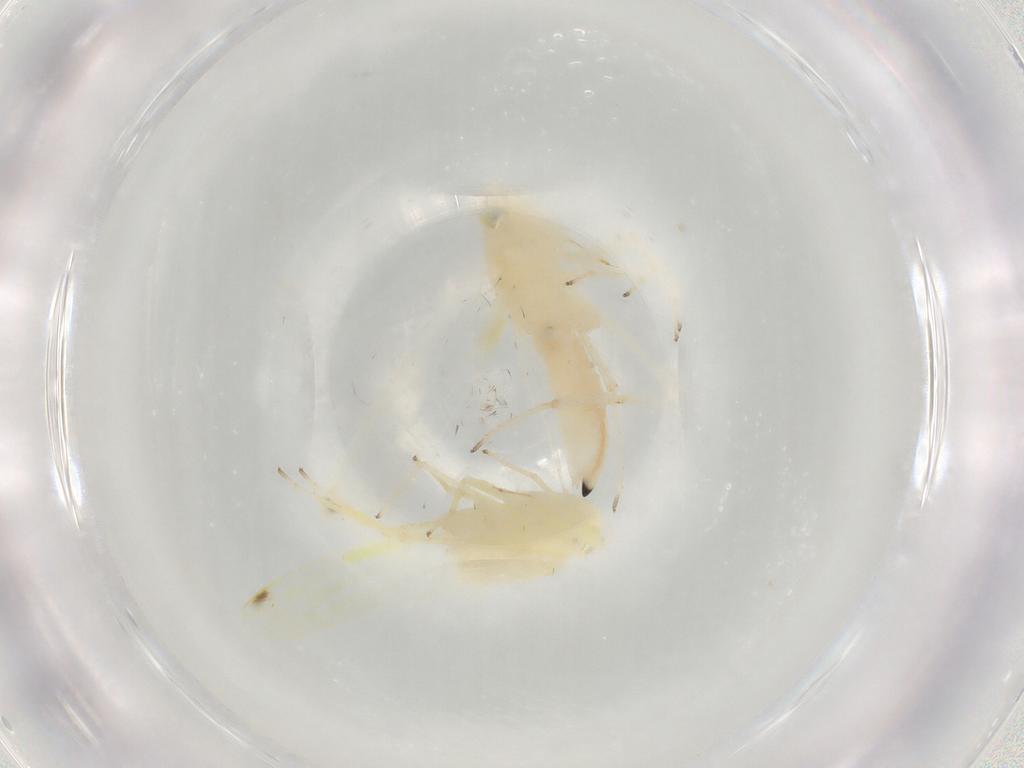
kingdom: Animalia
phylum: Arthropoda
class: Insecta
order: Hemiptera
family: Cicadellidae
